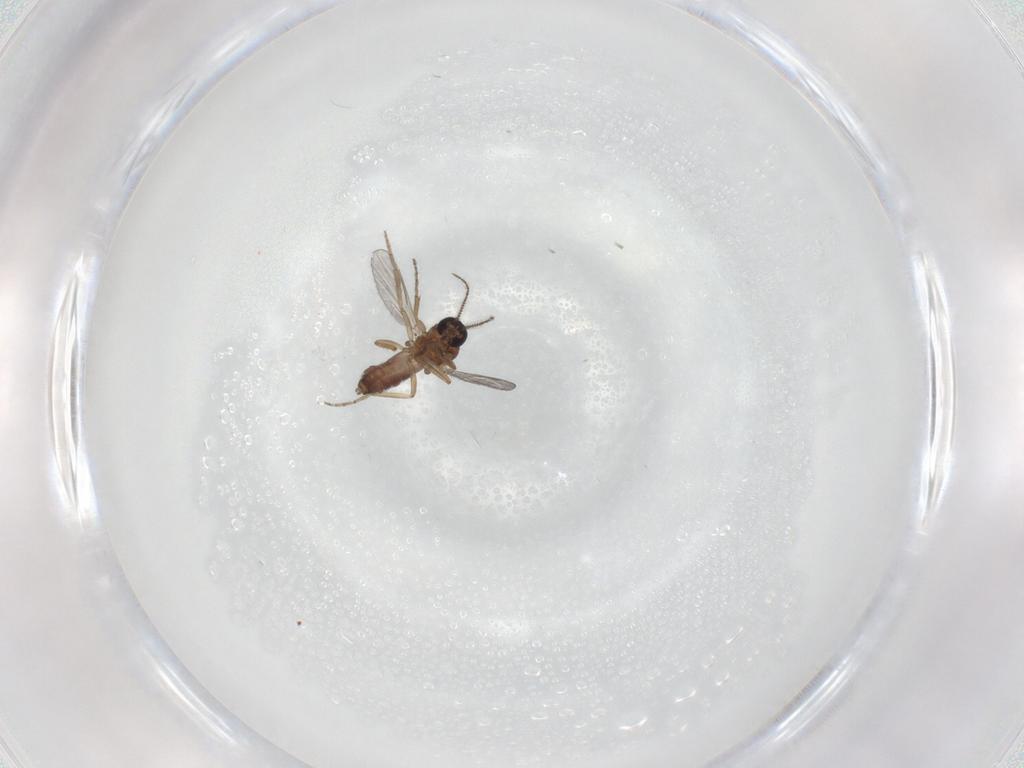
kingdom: Animalia
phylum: Arthropoda
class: Insecta
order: Diptera
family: Chironomidae
